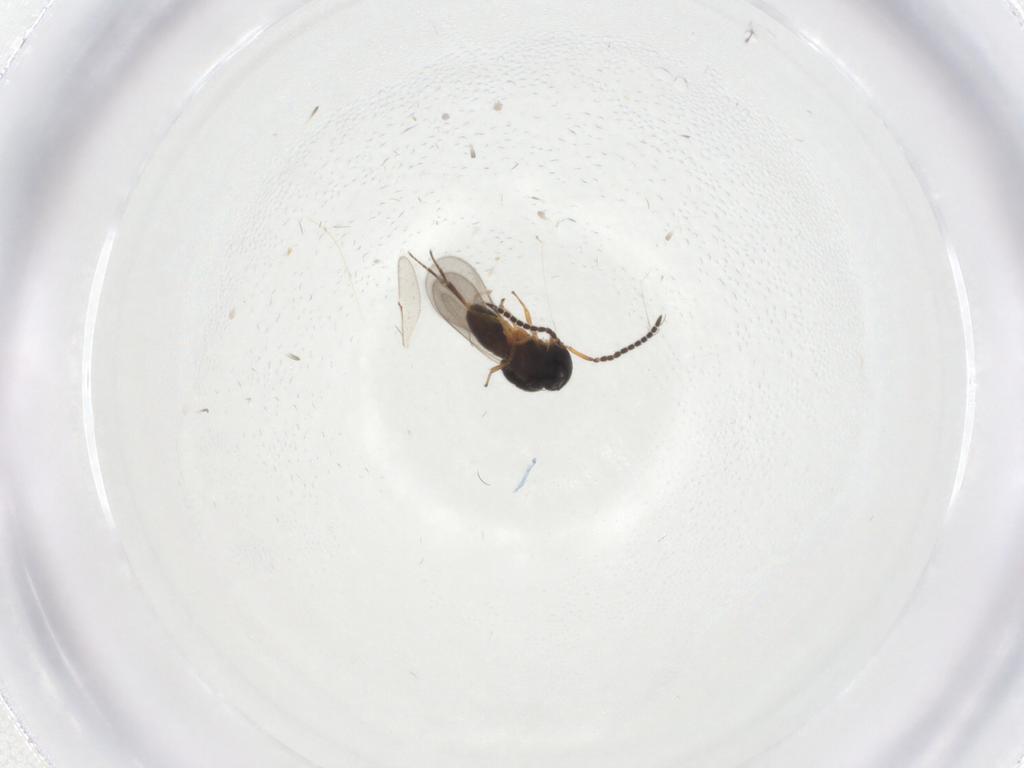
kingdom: Animalia
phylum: Arthropoda
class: Insecta
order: Hymenoptera
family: Scelionidae
